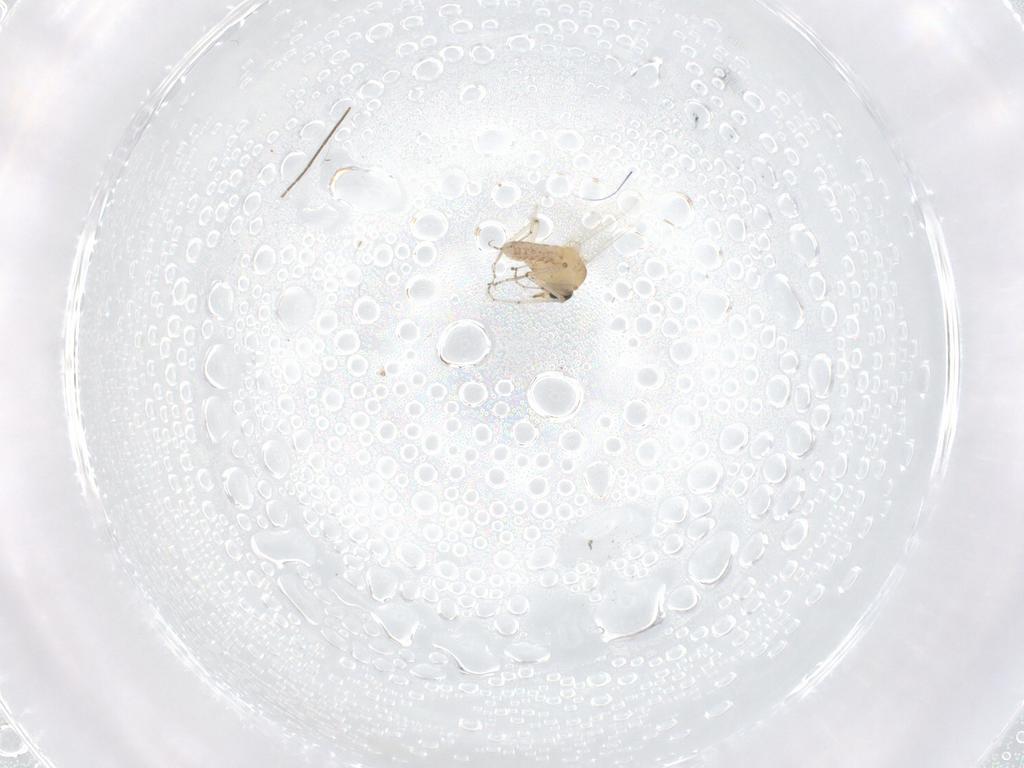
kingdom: Animalia
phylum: Arthropoda
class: Insecta
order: Diptera
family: Ceratopogonidae
